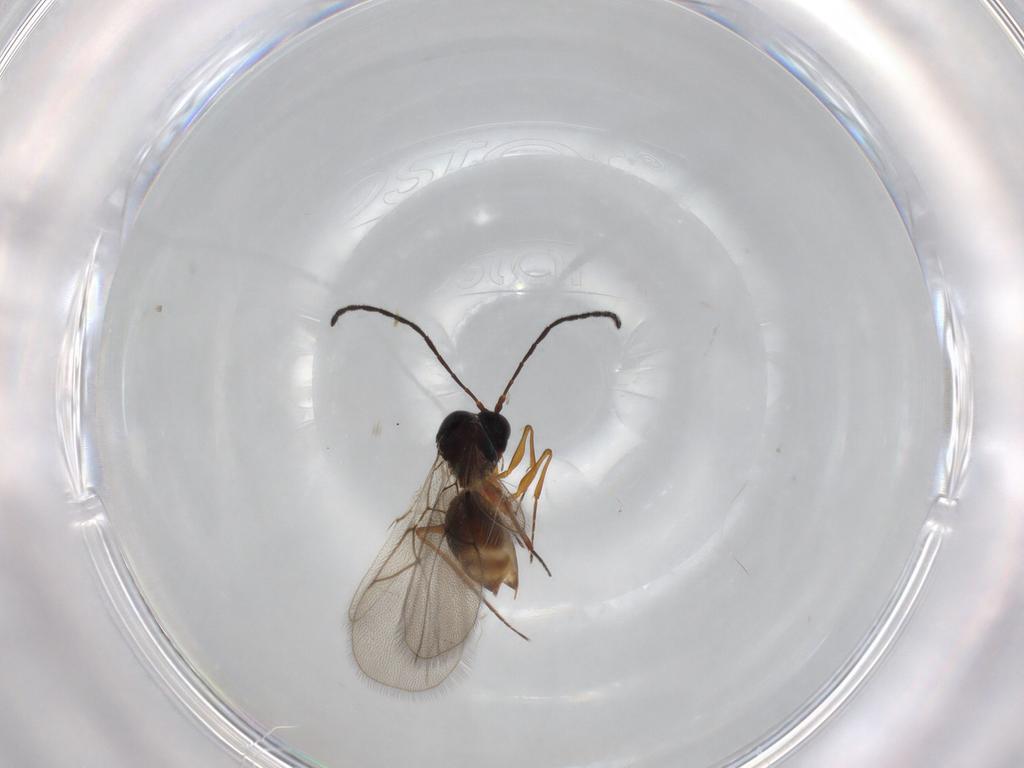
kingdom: Animalia
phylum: Arthropoda
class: Insecta
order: Hymenoptera
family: Figitidae
